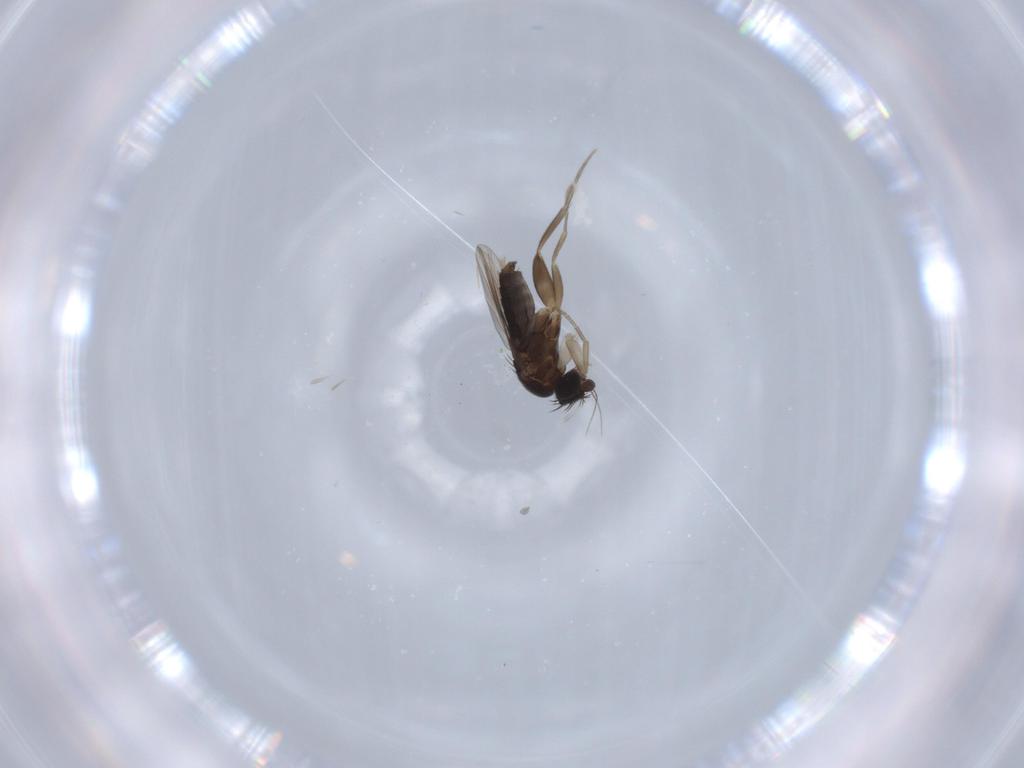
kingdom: Animalia
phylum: Arthropoda
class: Insecta
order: Diptera
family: Phoridae
